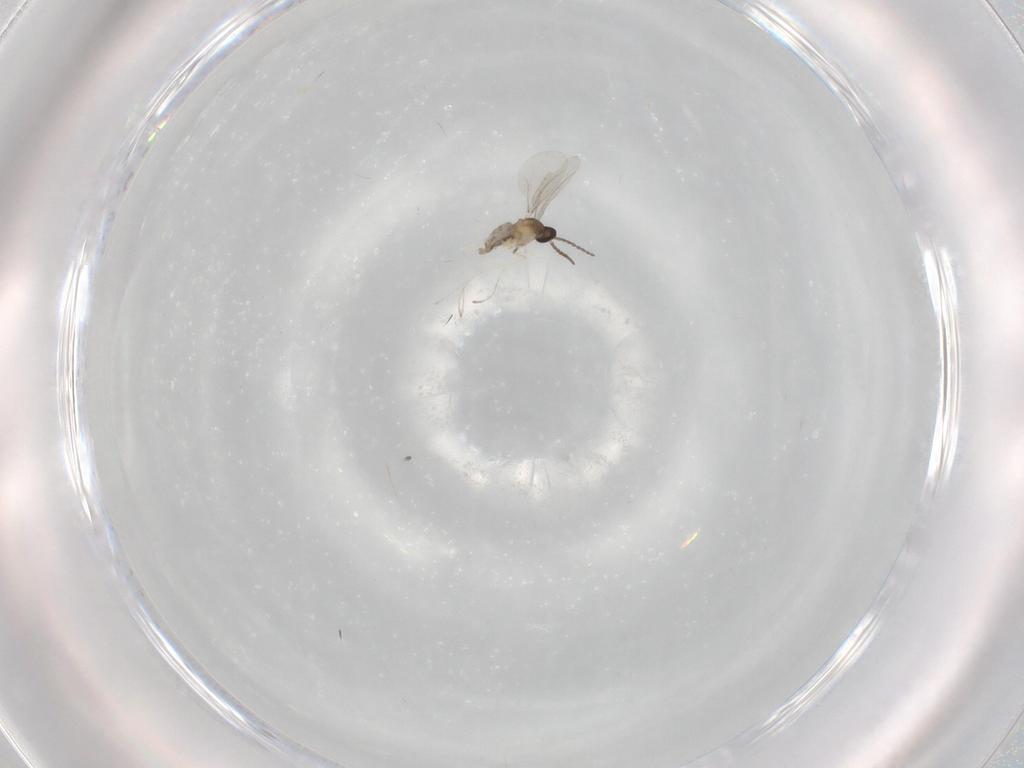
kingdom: Animalia
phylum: Arthropoda
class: Insecta
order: Diptera
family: Cecidomyiidae
